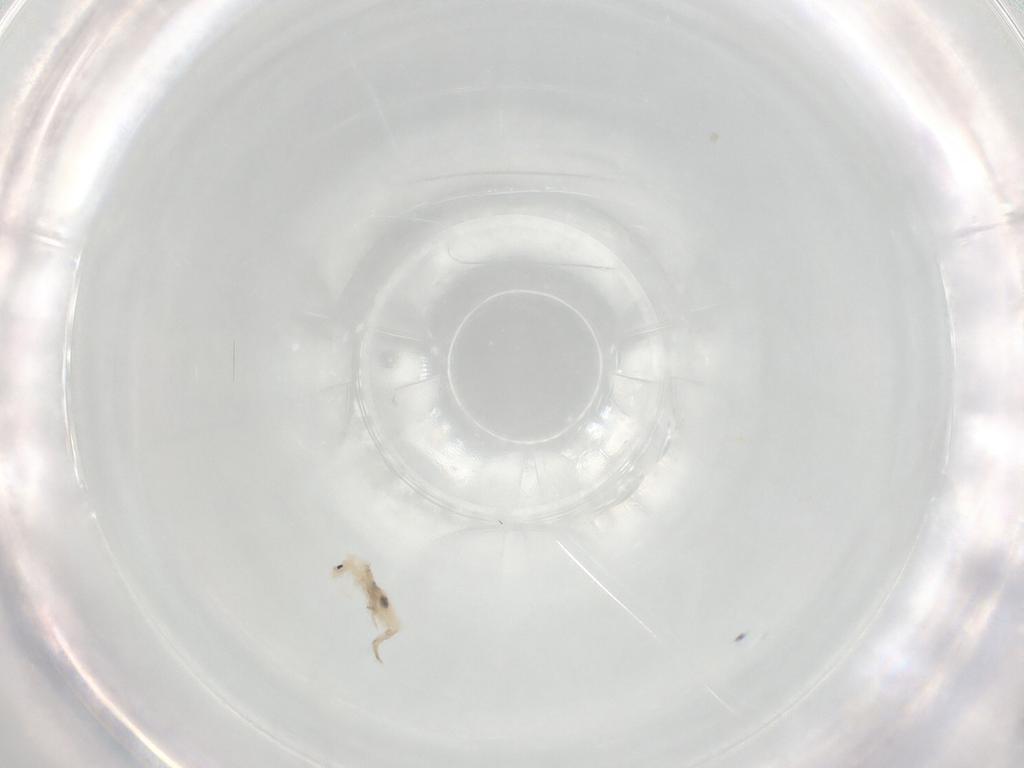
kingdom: Animalia
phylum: Arthropoda
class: Collembola
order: Entomobryomorpha
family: Entomobryidae
